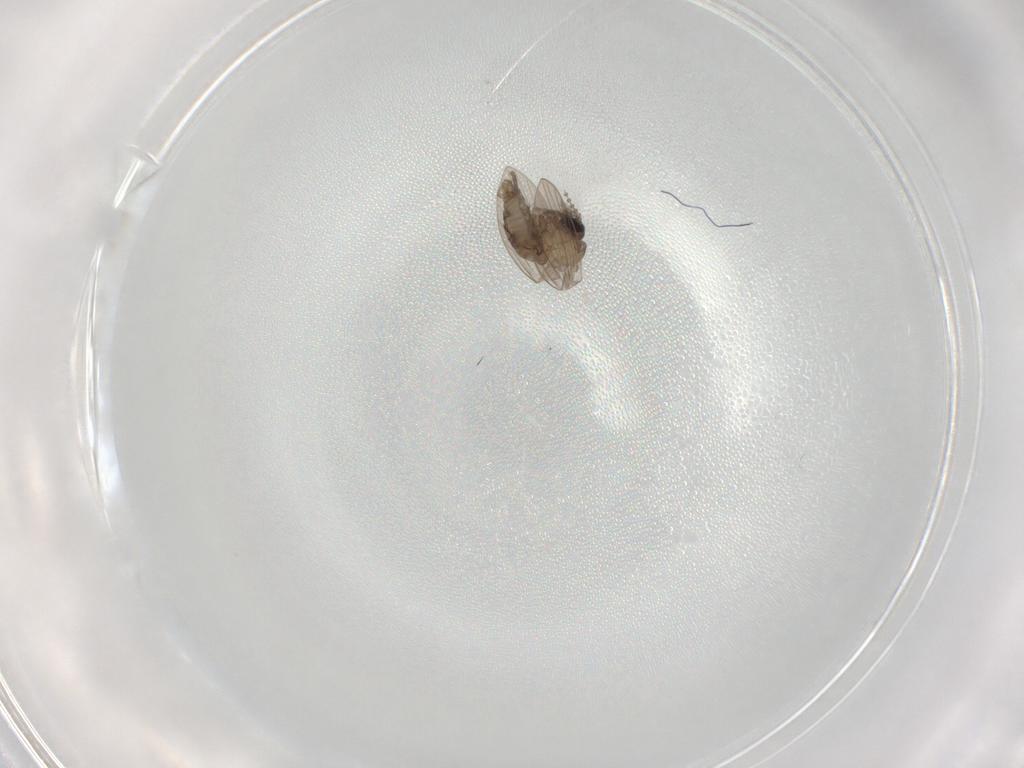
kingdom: Animalia
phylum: Arthropoda
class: Insecta
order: Diptera
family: Psychodidae
